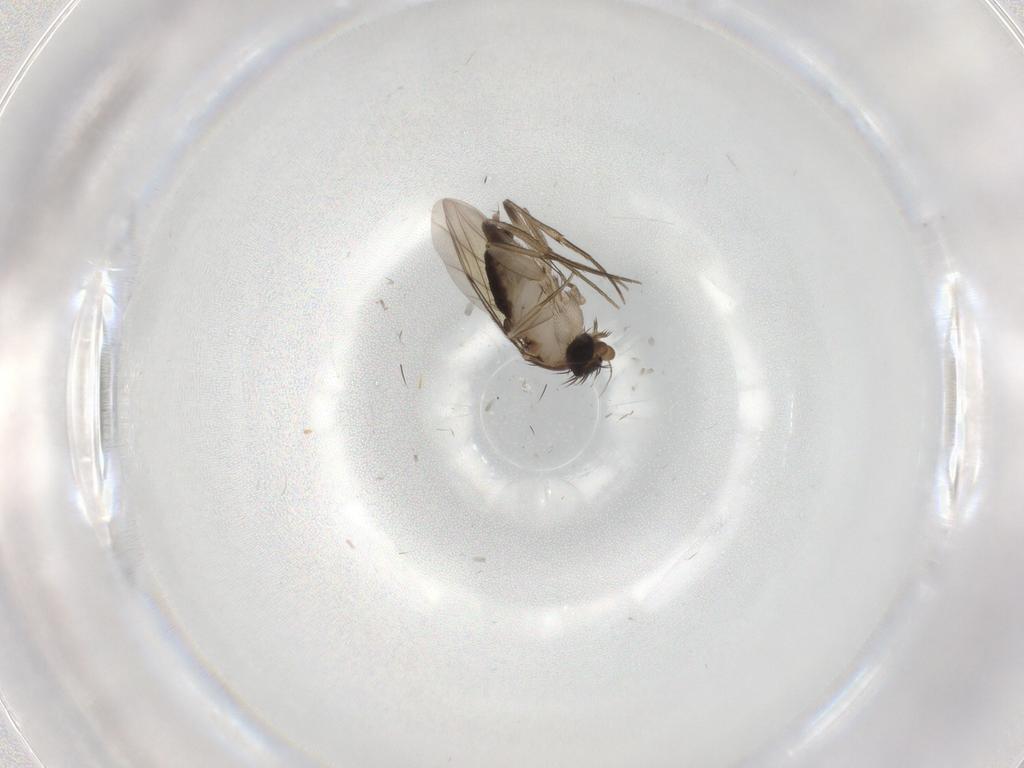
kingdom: Animalia
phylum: Arthropoda
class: Insecta
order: Diptera
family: Phoridae
